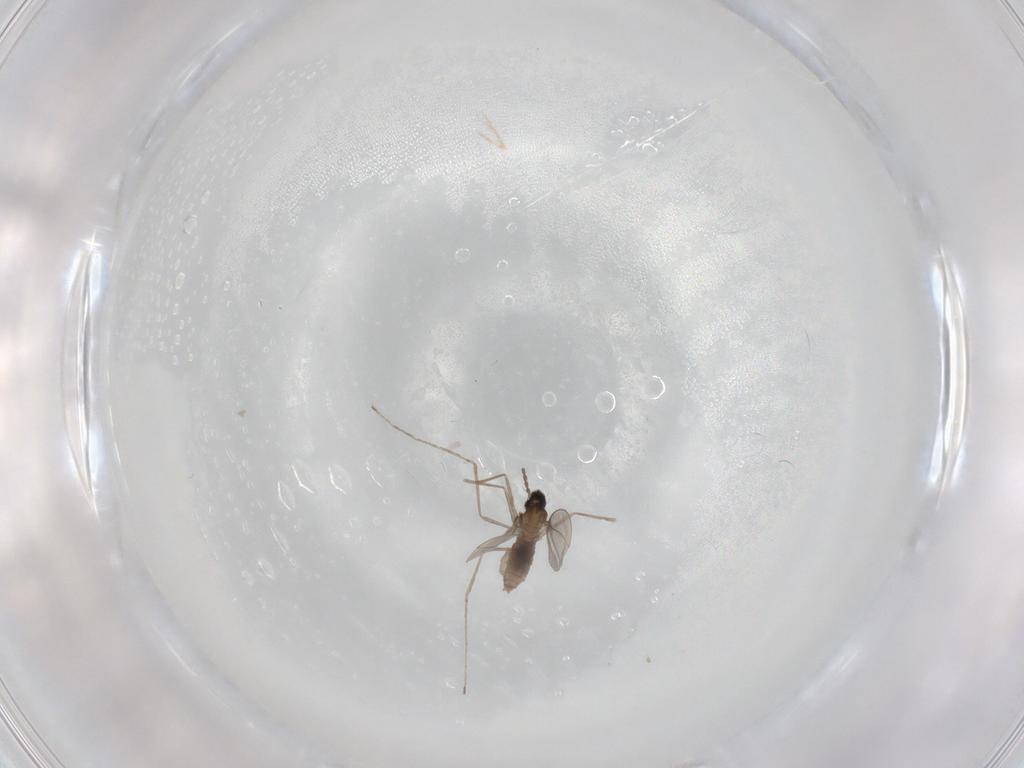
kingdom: Animalia
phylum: Arthropoda
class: Insecta
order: Diptera
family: Cecidomyiidae
